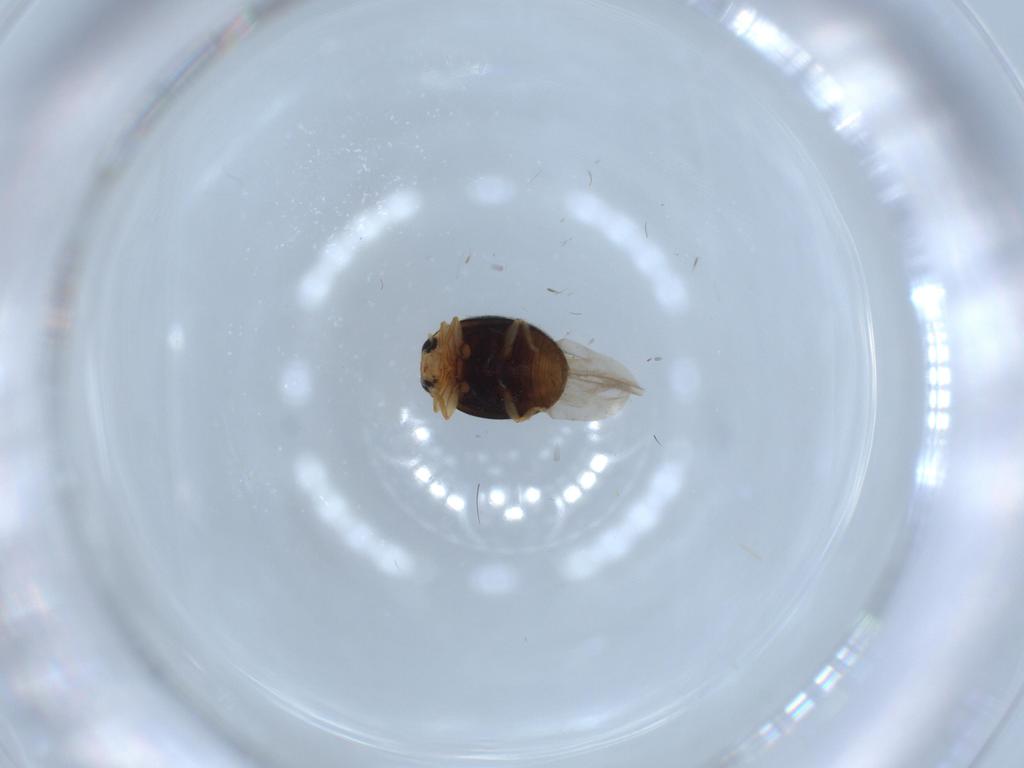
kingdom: Animalia
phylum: Arthropoda
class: Insecta
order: Coleoptera
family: Coccinellidae
